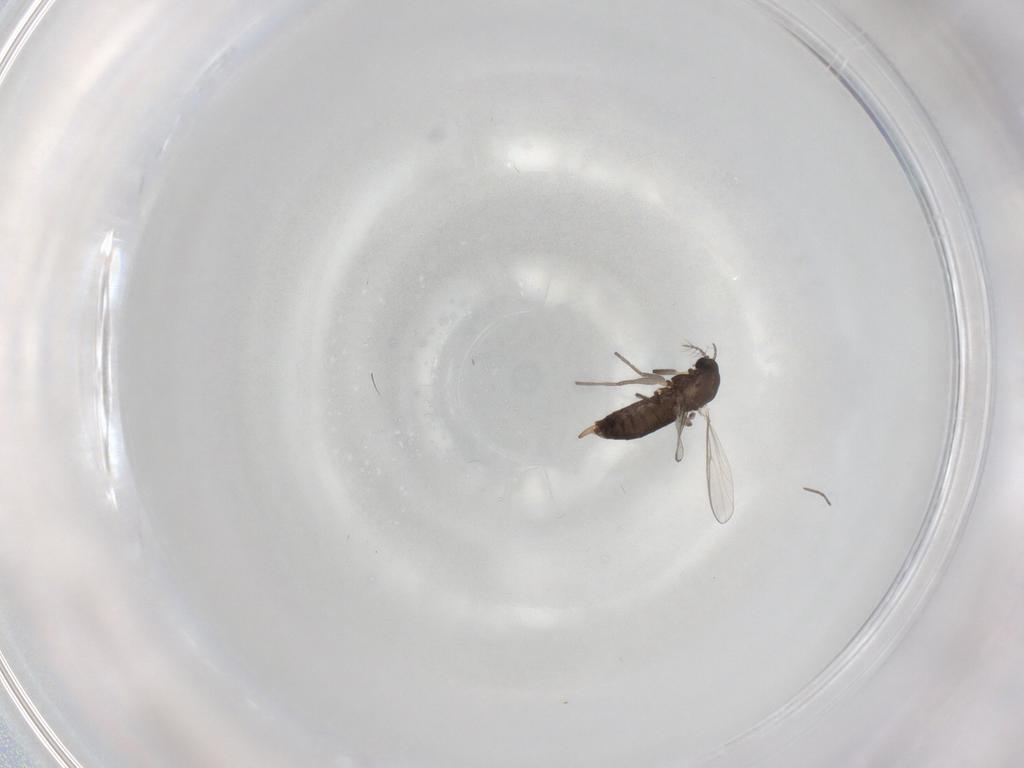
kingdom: Animalia
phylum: Arthropoda
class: Insecta
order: Diptera
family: Chironomidae
